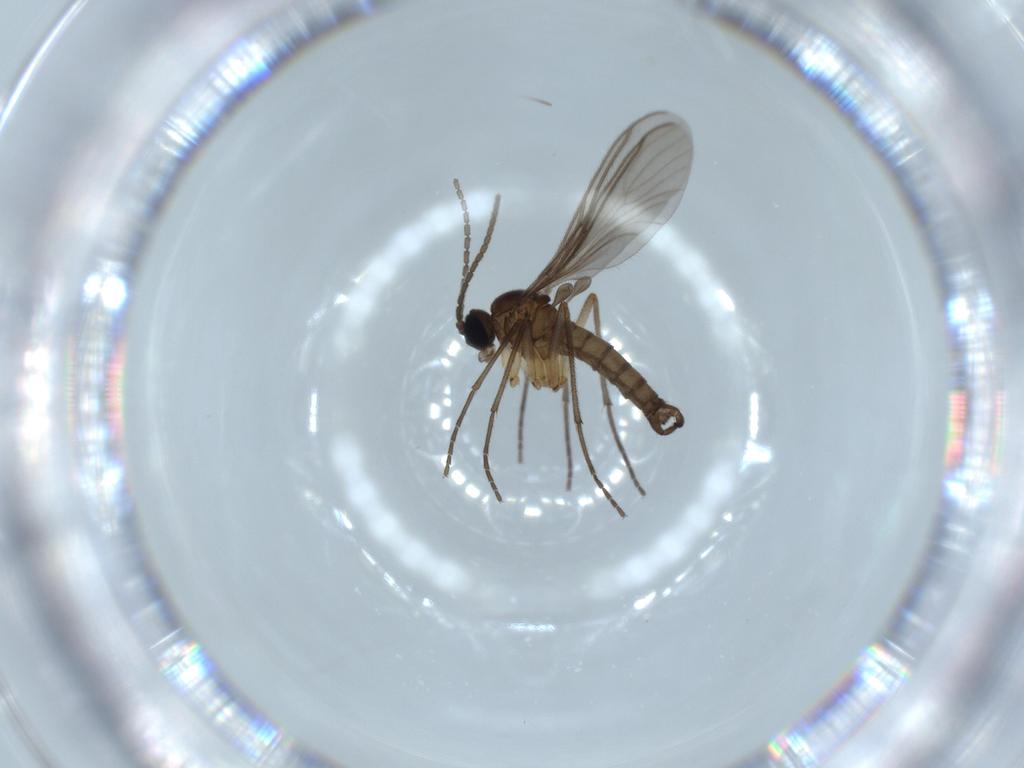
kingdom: Animalia
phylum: Arthropoda
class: Insecta
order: Diptera
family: Sciaridae
